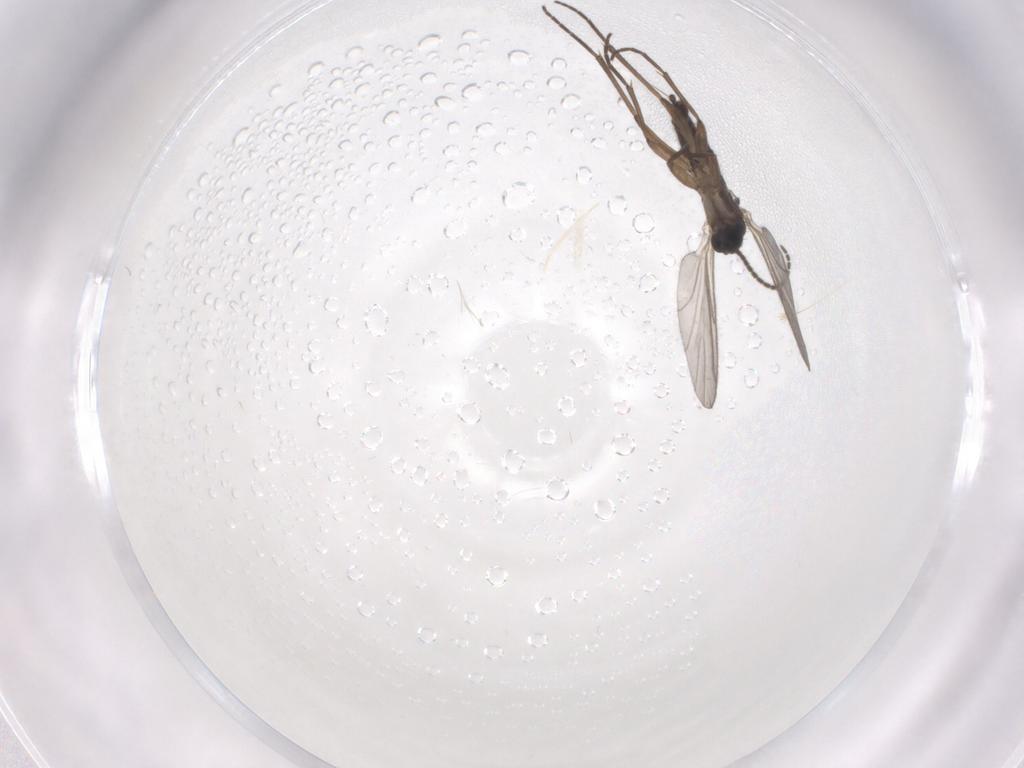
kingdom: Animalia
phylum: Arthropoda
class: Insecta
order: Diptera
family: Cecidomyiidae
